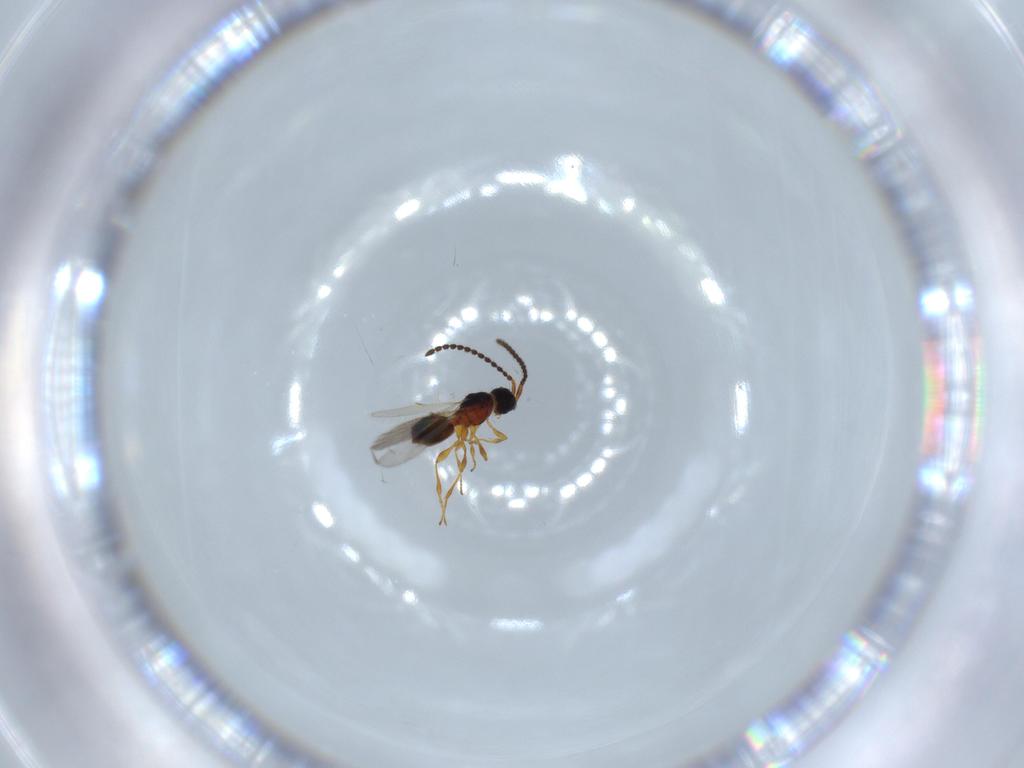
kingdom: Animalia
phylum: Arthropoda
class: Insecta
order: Hymenoptera
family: Diapriidae
